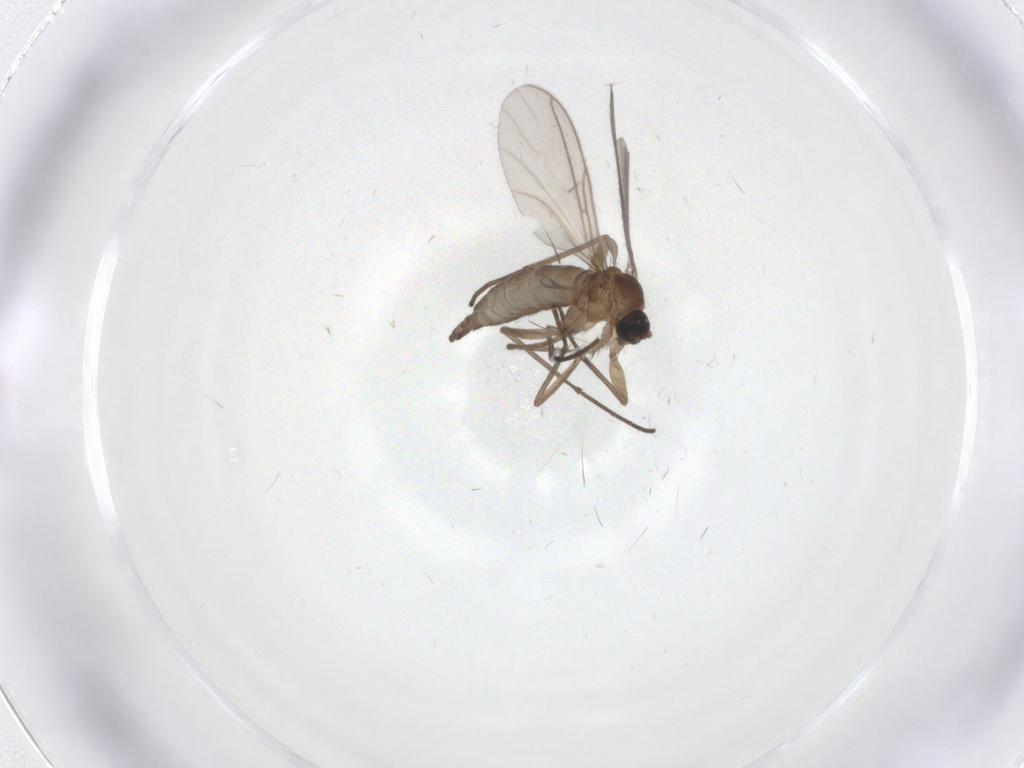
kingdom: Animalia
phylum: Arthropoda
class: Insecta
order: Diptera
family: Sciaridae
